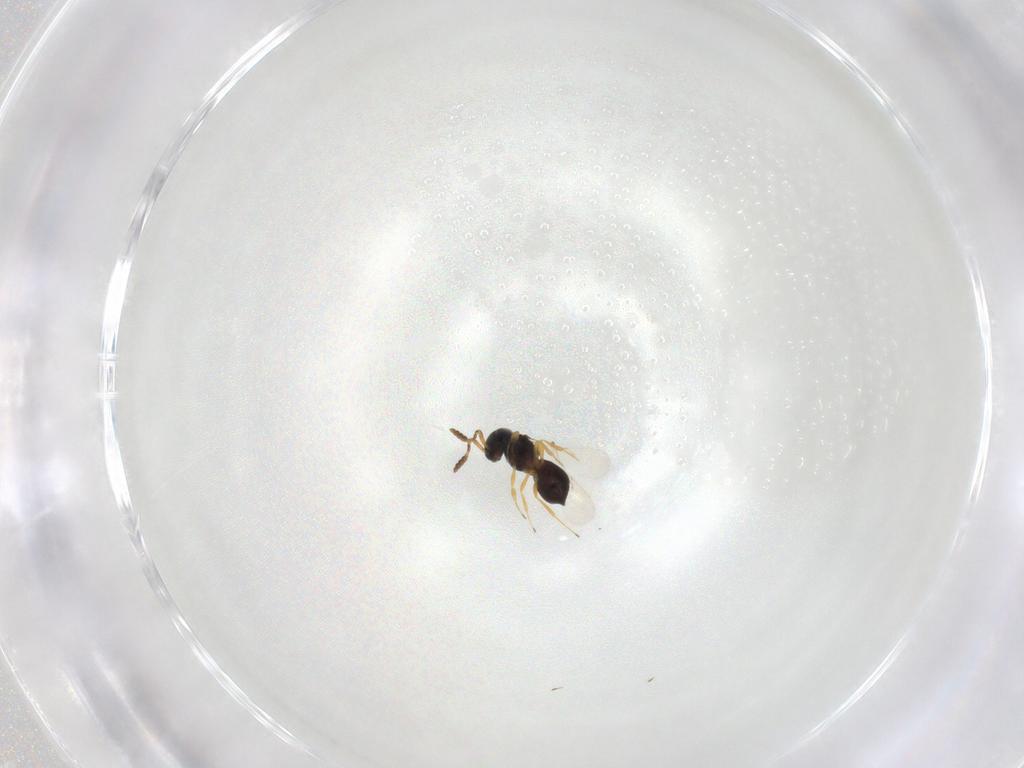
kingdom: Animalia
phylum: Arthropoda
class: Insecta
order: Hymenoptera
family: Scelionidae
